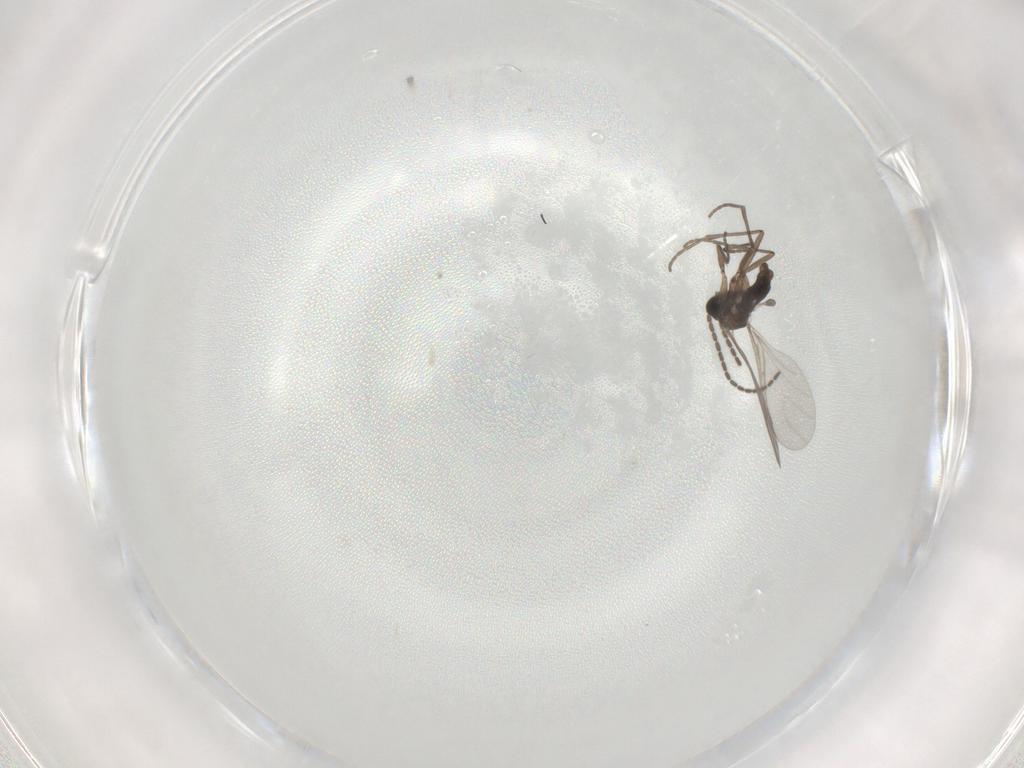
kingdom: Animalia
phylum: Arthropoda
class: Insecta
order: Diptera
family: Sciaridae
